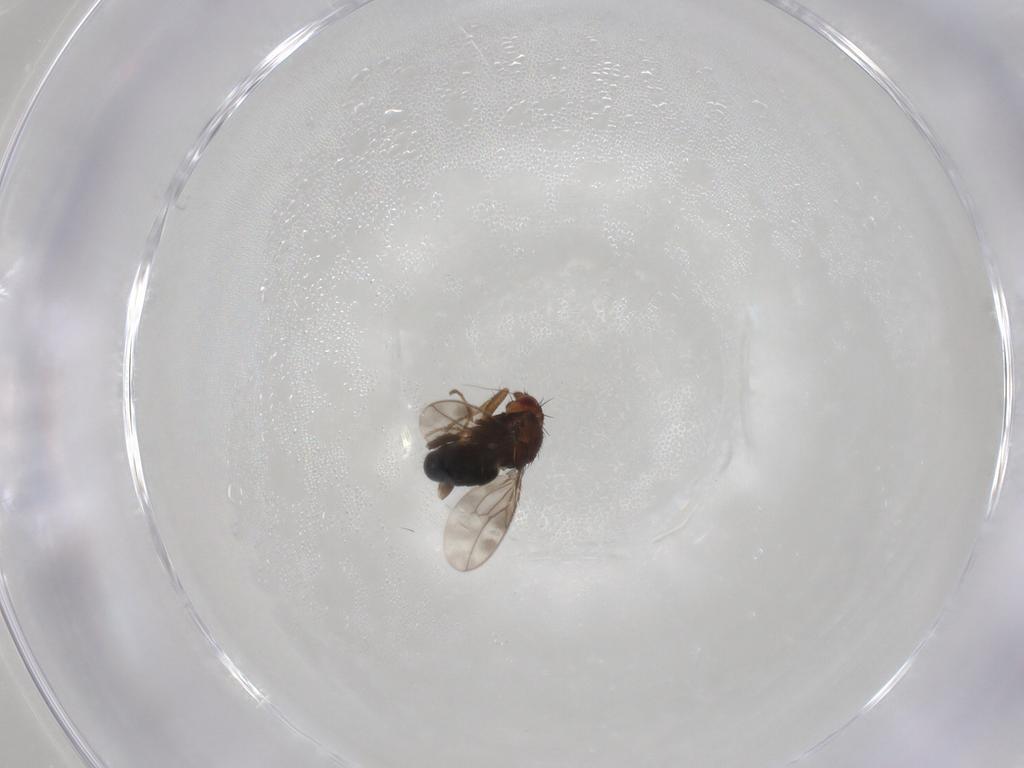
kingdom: Animalia
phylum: Arthropoda
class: Insecta
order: Diptera
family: Sphaeroceridae
